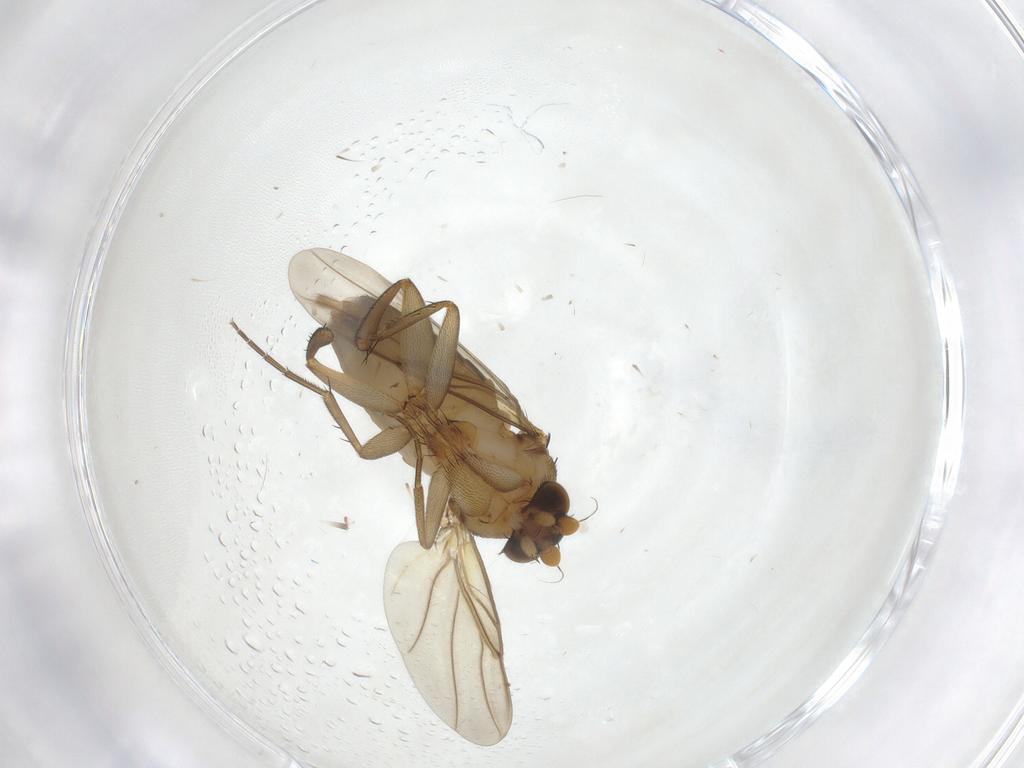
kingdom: Animalia
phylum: Arthropoda
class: Insecta
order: Diptera
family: Phoridae
